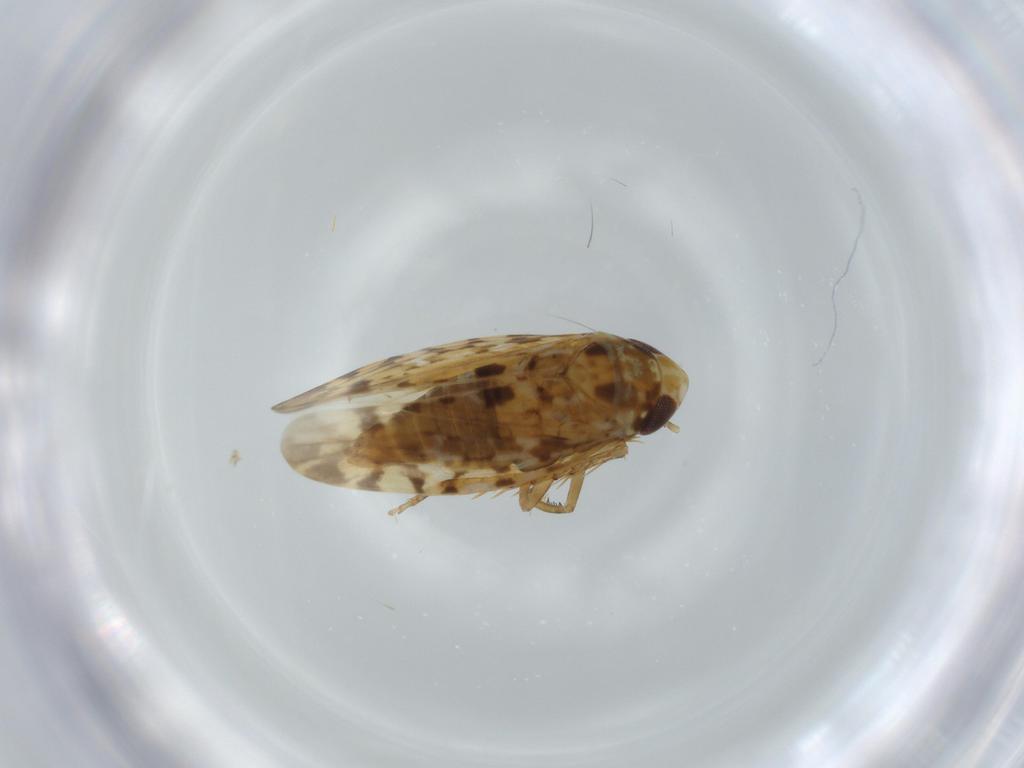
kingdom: Animalia
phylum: Arthropoda
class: Insecta
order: Hemiptera
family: Cicadellidae
